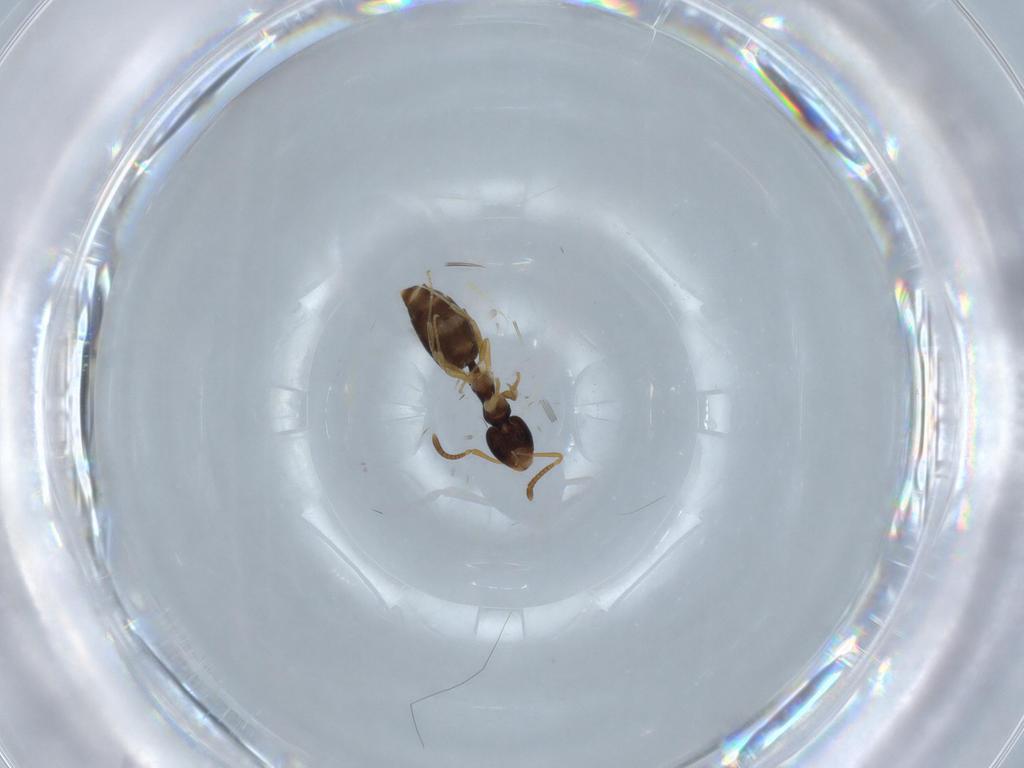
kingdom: Animalia
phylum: Arthropoda
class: Insecta
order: Hymenoptera
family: Formicidae
